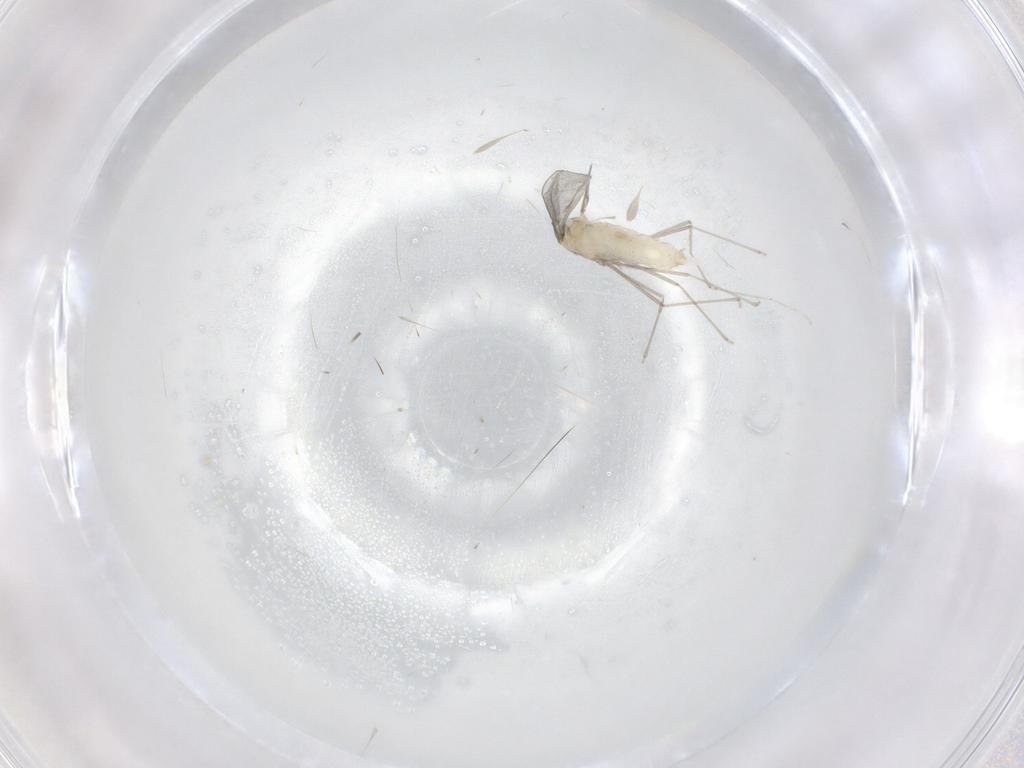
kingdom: Animalia
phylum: Arthropoda
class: Insecta
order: Diptera
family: Cecidomyiidae
